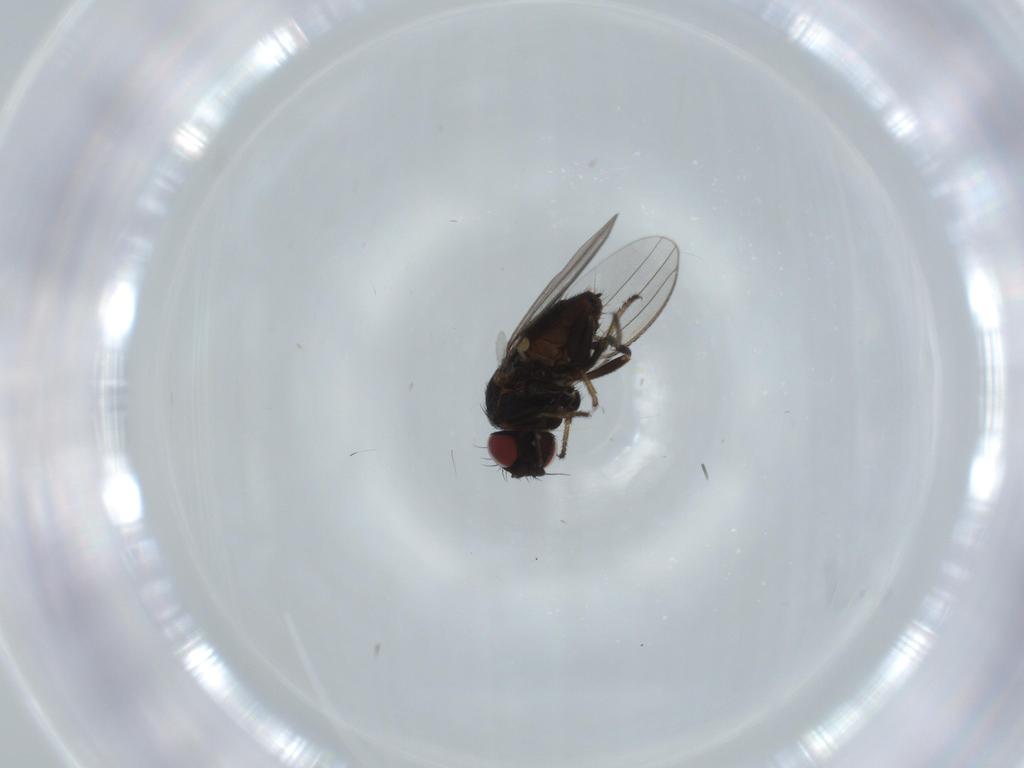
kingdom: Animalia
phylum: Arthropoda
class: Insecta
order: Diptera
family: Milichiidae
